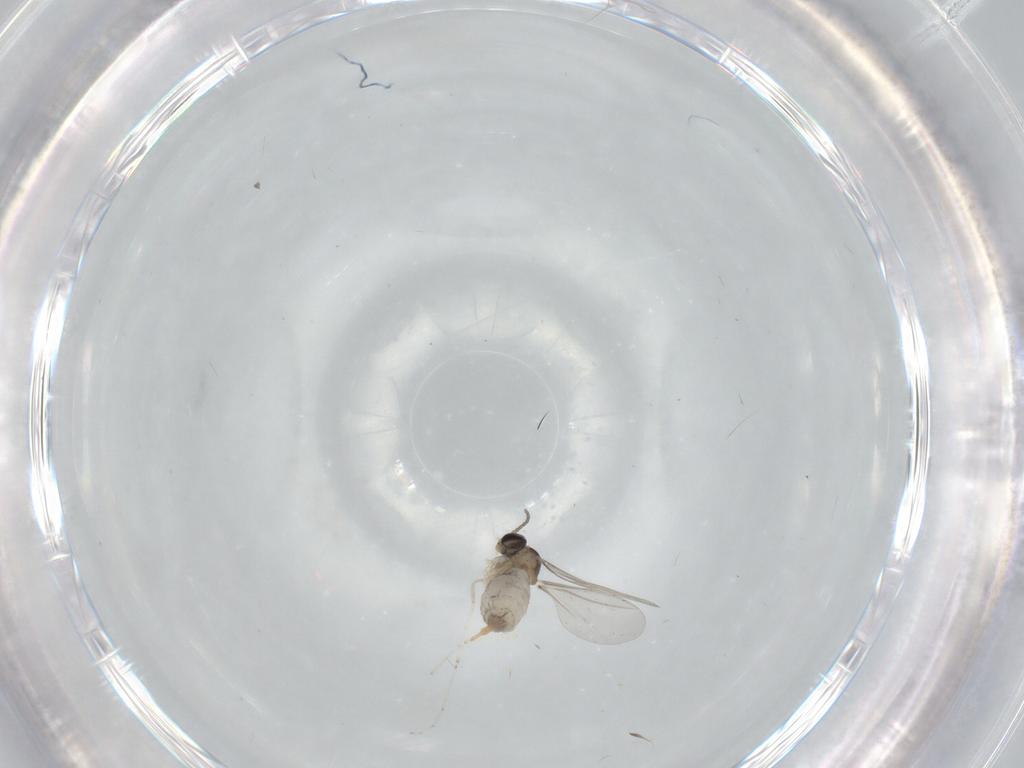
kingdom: Animalia
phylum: Arthropoda
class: Insecta
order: Diptera
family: Cecidomyiidae
